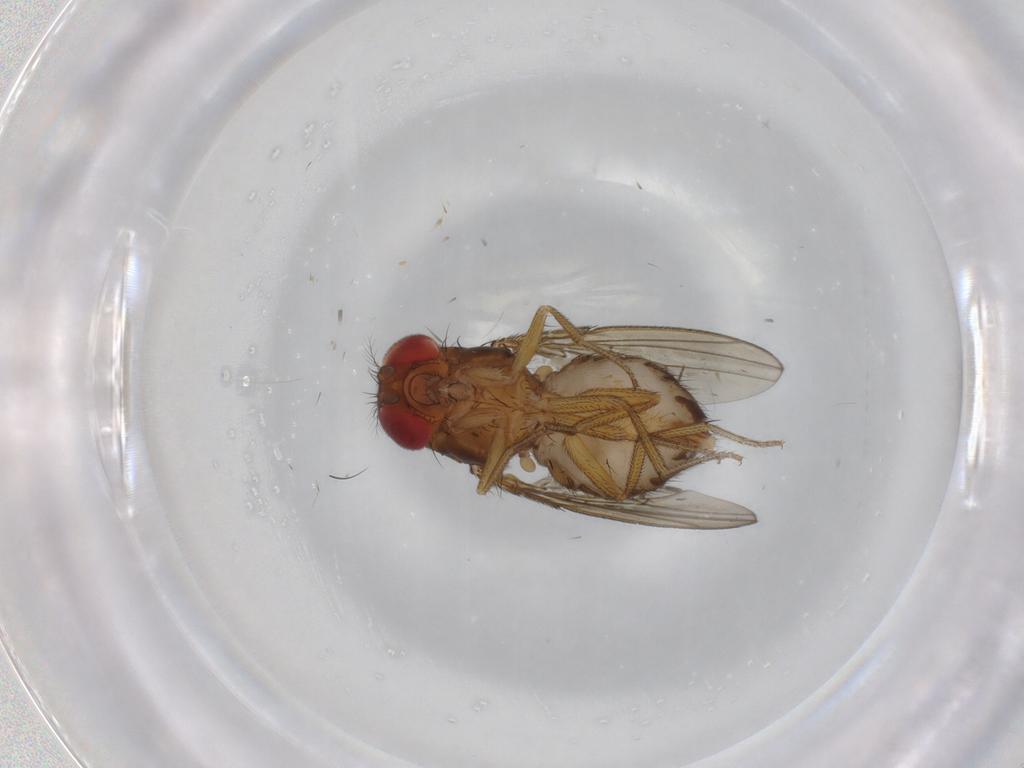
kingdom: Animalia
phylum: Arthropoda
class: Insecta
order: Diptera
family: Drosophilidae
